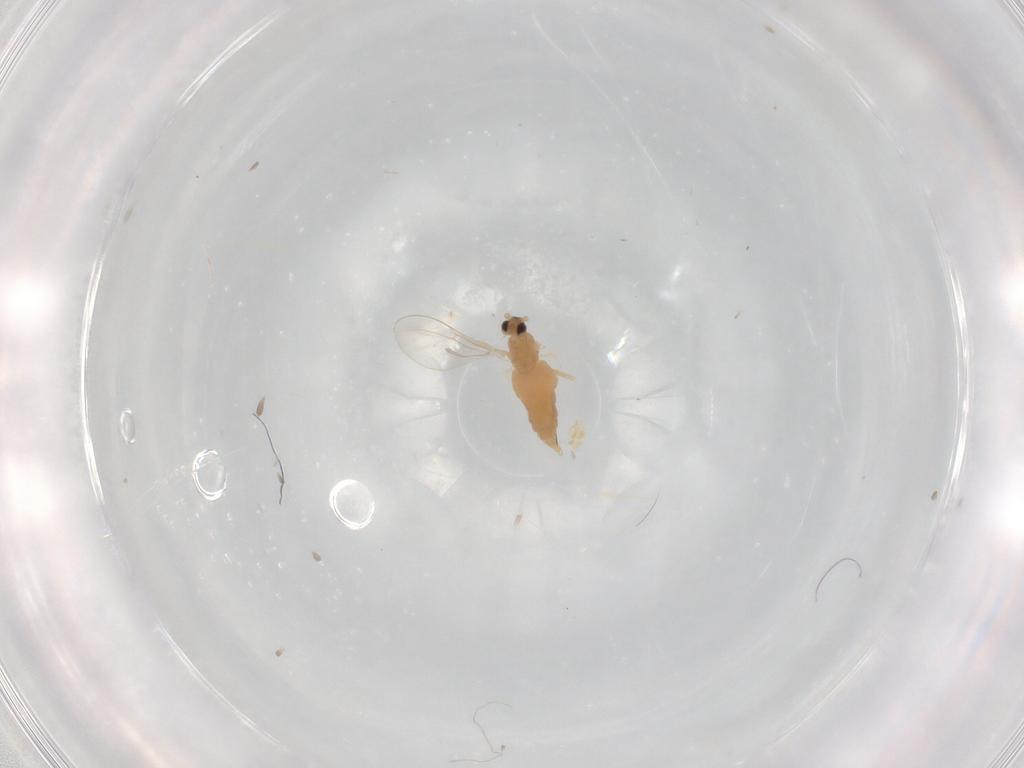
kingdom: Animalia
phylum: Arthropoda
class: Insecta
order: Diptera
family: Cecidomyiidae
